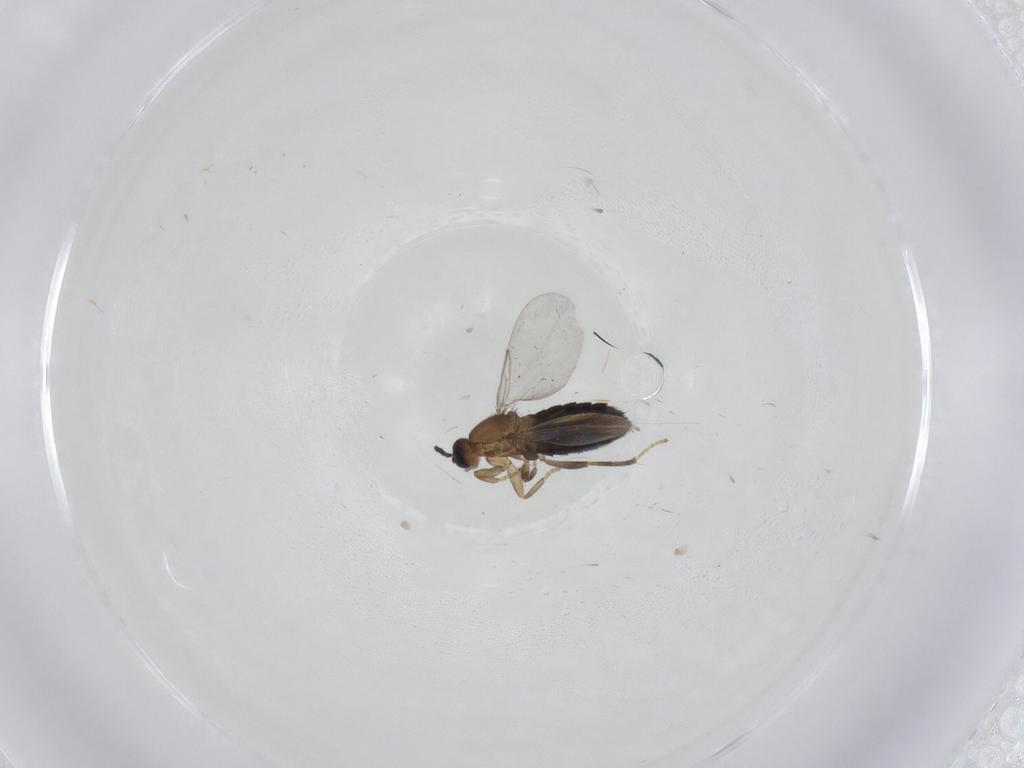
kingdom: Animalia
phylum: Arthropoda
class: Insecta
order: Diptera
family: Scatopsidae
